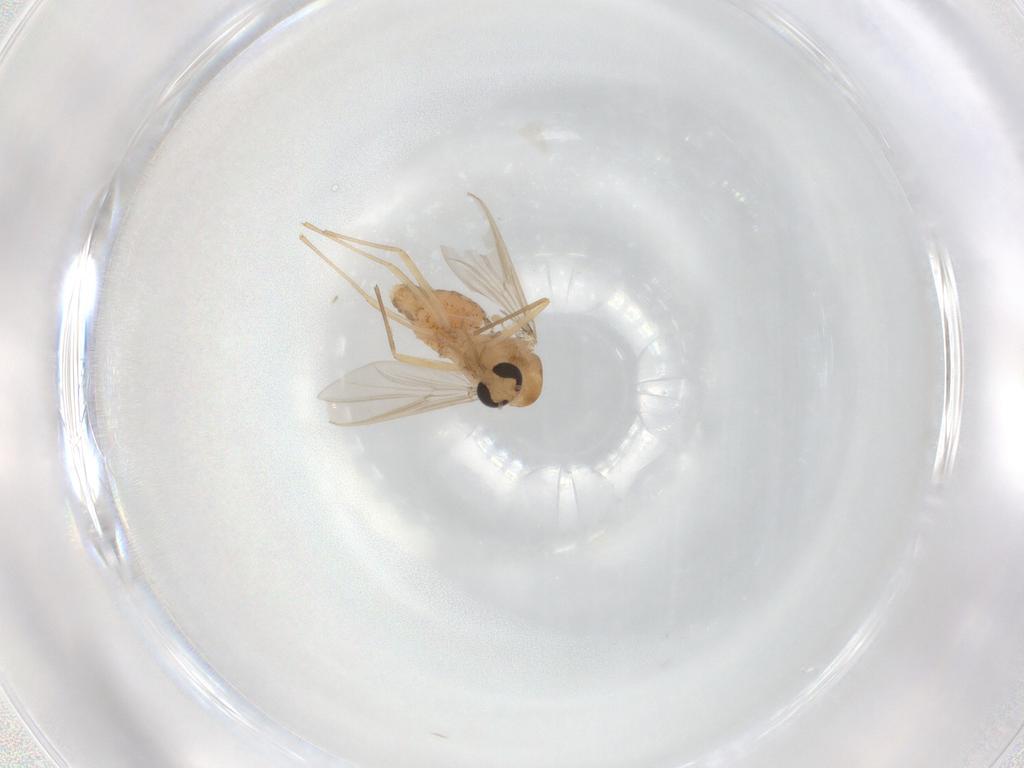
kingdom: Animalia
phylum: Arthropoda
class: Insecta
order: Diptera
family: Chironomidae
